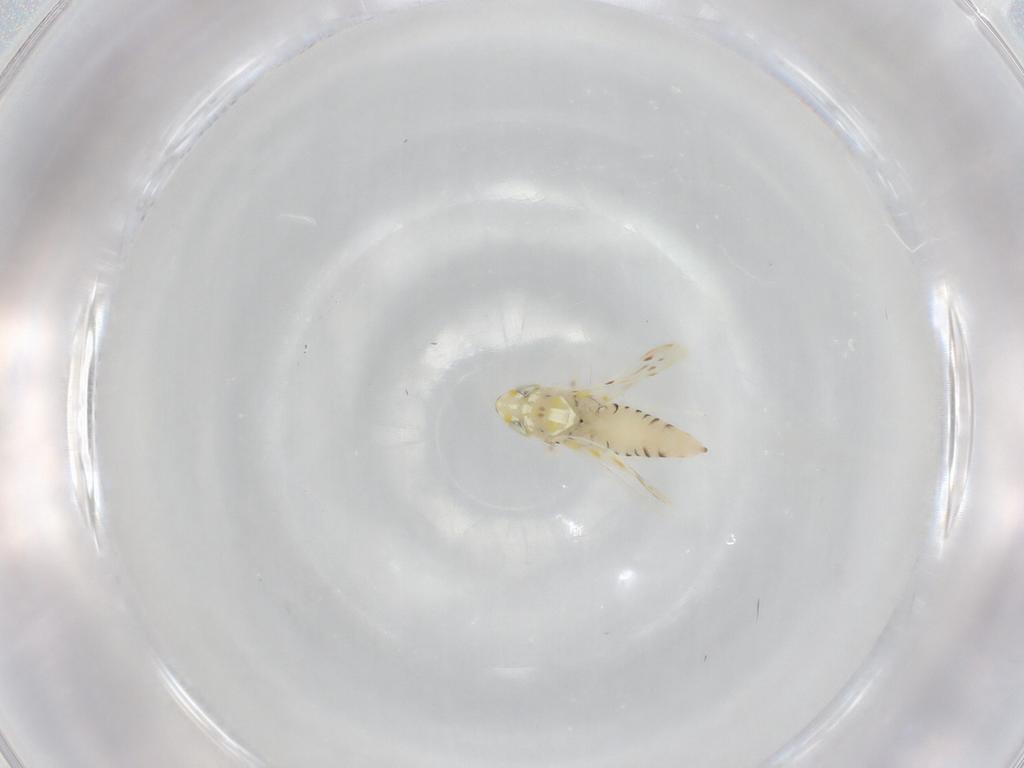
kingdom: Animalia
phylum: Arthropoda
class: Insecta
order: Hemiptera
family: Cicadellidae
